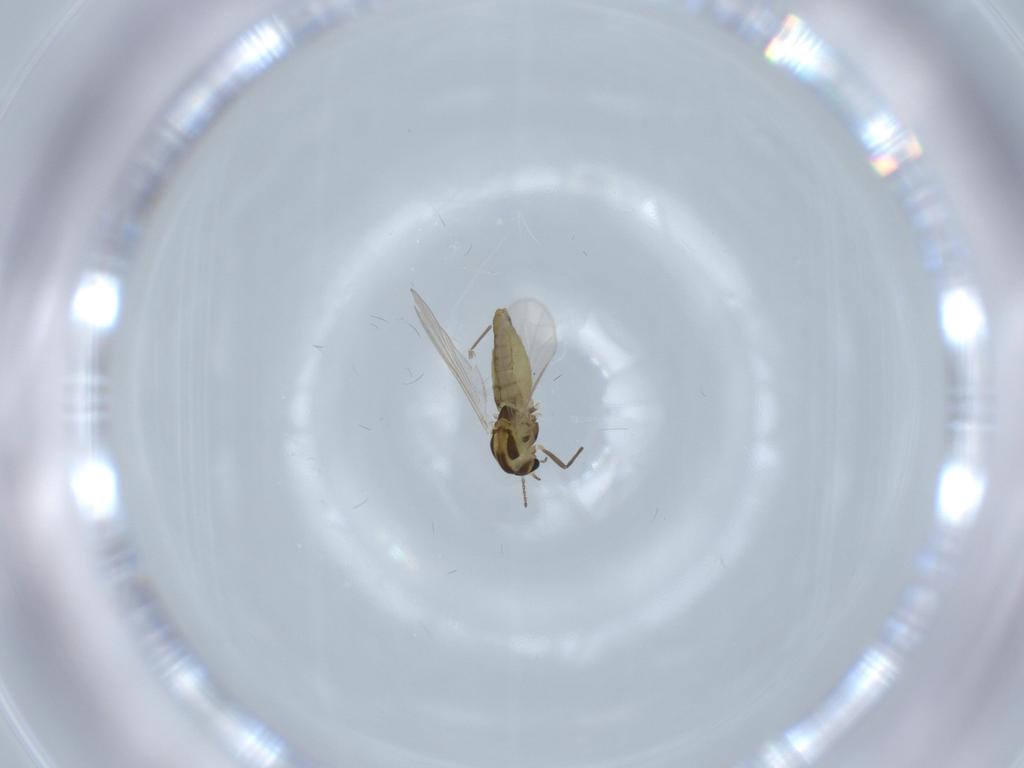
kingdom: Animalia
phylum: Arthropoda
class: Insecta
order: Diptera
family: Chironomidae
